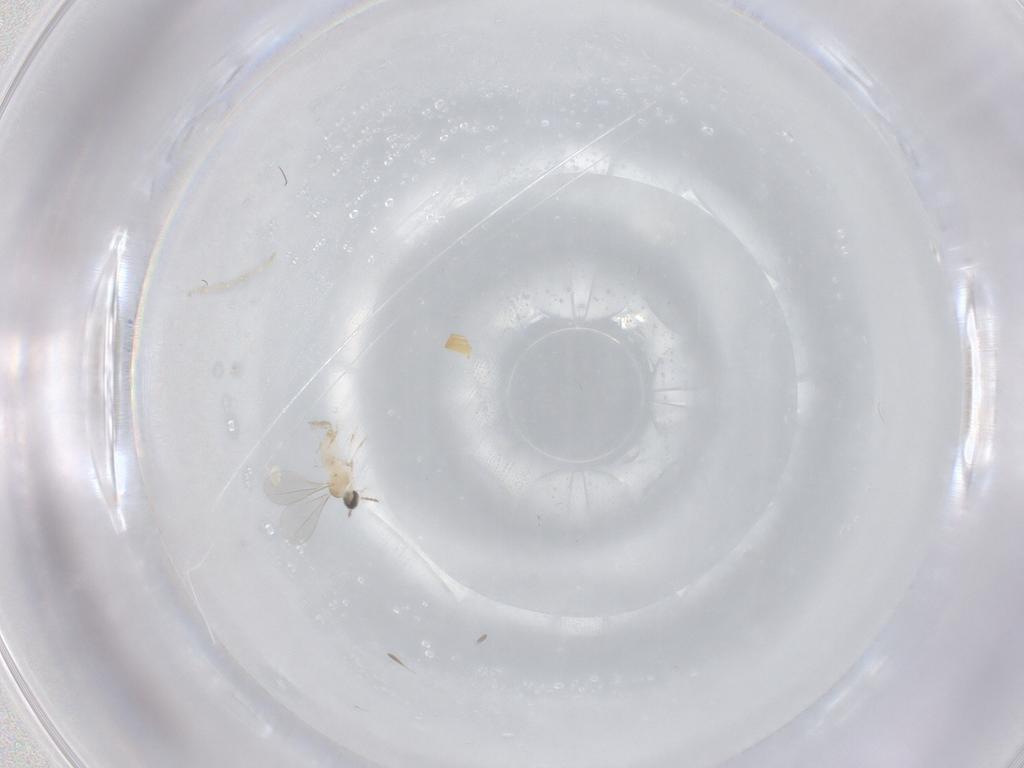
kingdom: Animalia
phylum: Arthropoda
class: Insecta
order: Diptera
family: Cecidomyiidae
